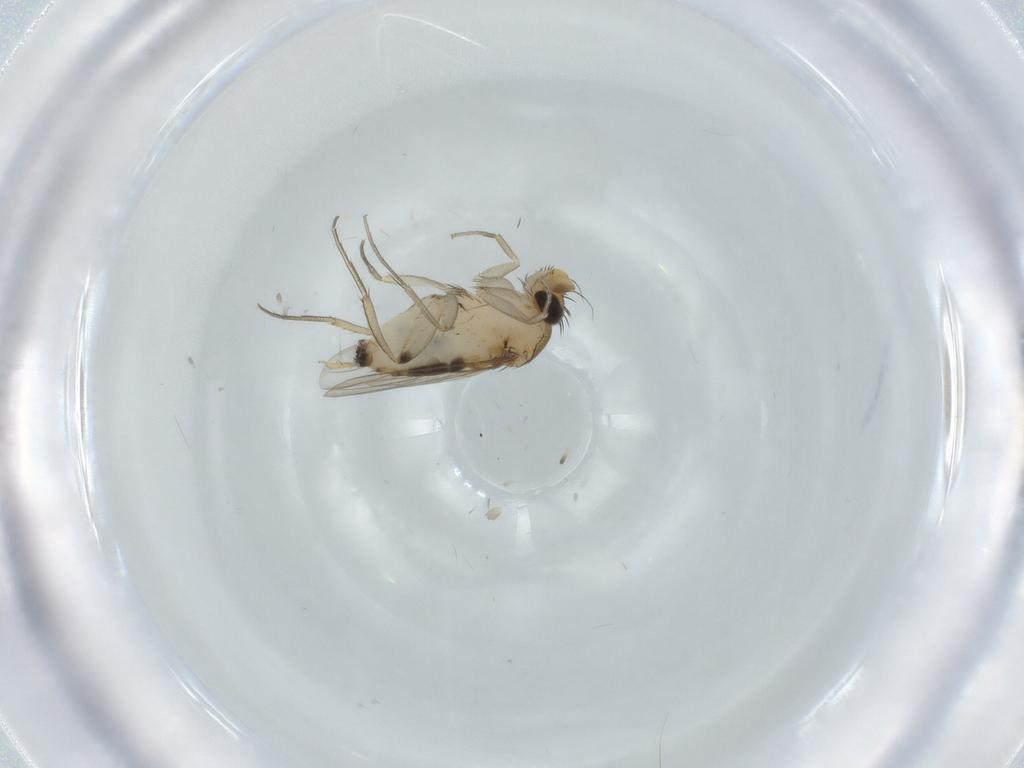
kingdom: Animalia
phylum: Arthropoda
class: Insecta
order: Diptera
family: Phoridae
